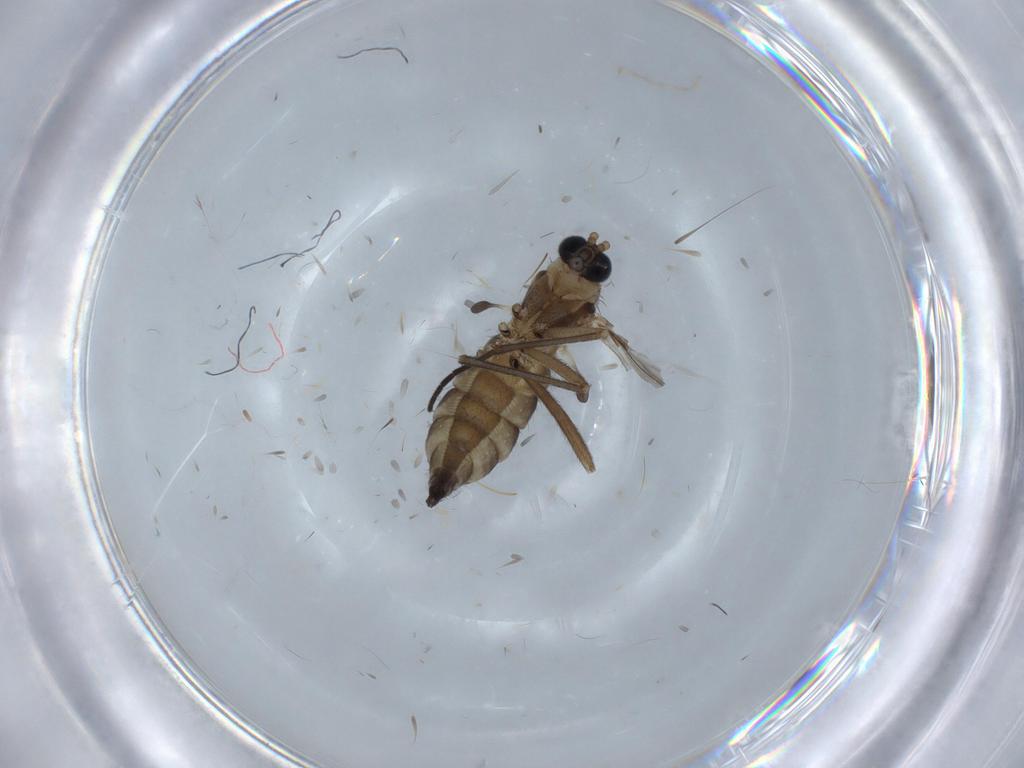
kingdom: Animalia
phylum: Arthropoda
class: Insecta
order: Diptera
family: Sciaridae
